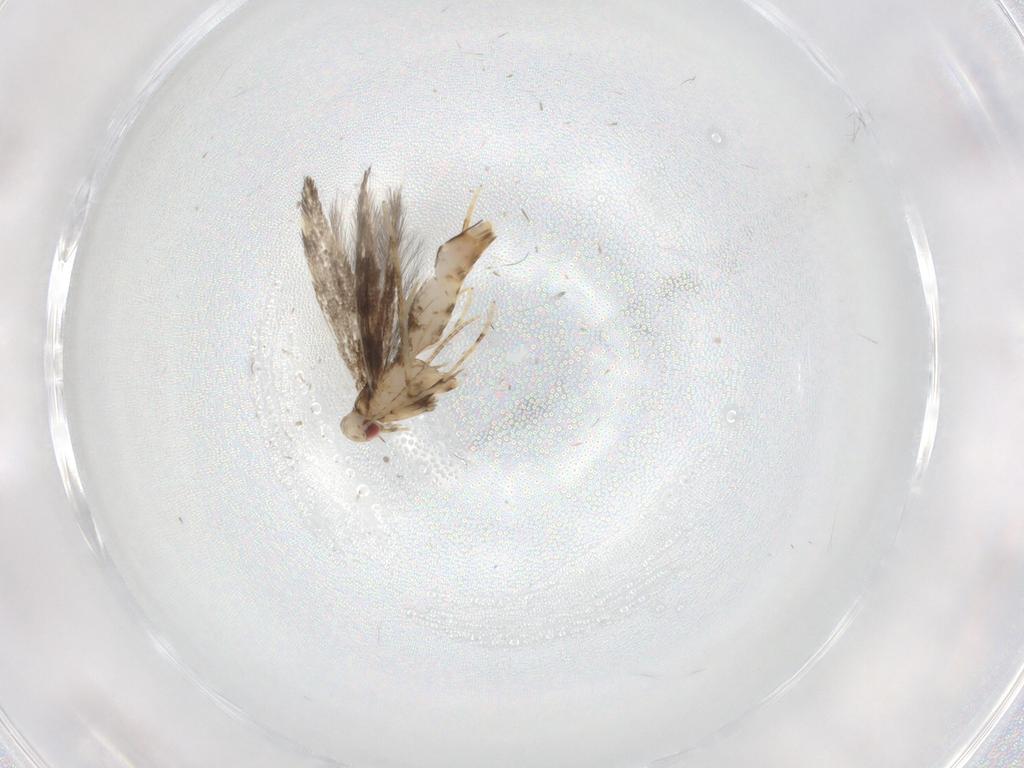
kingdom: Animalia
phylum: Arthropoda
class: Insecta
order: Lepidoptera
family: Gracillariidae
